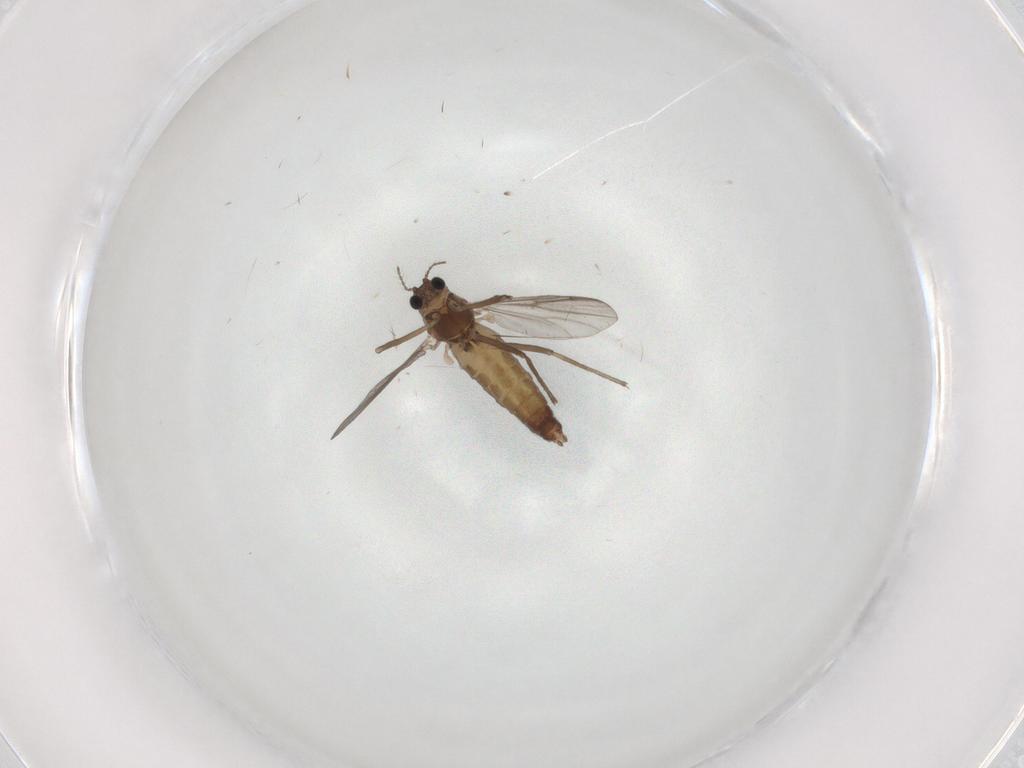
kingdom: Animalia
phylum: Arthropoda
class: Insecta
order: Diptera
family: Chironomidae
